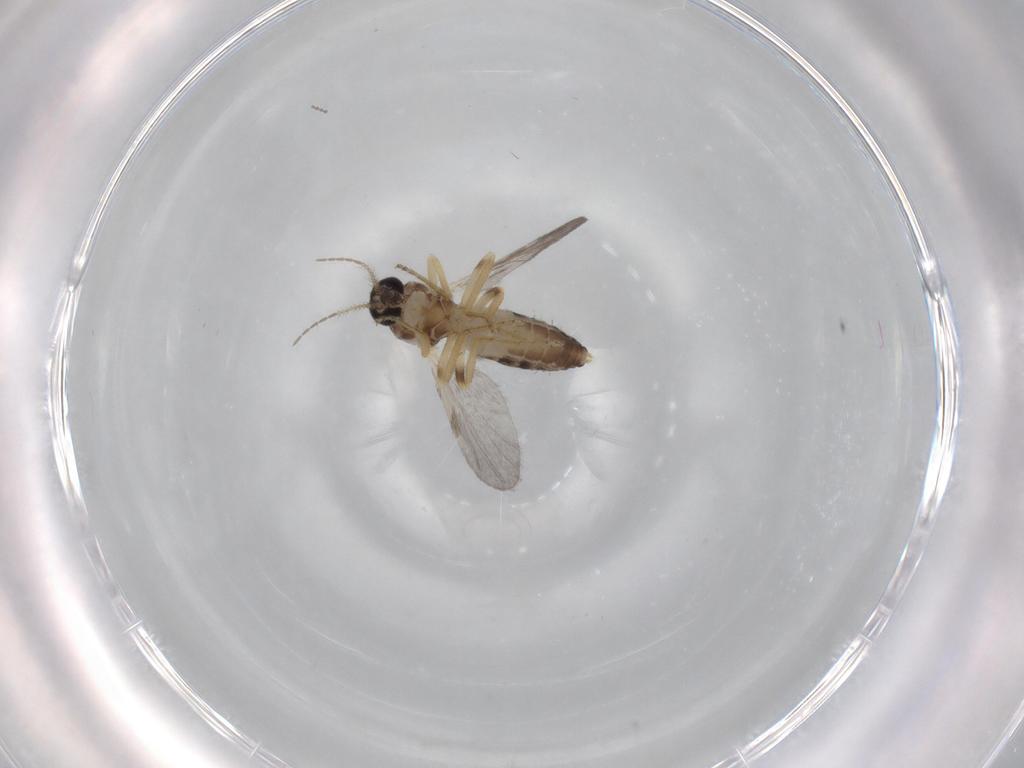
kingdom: Animalia
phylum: Arthropoda
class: Insecta
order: Diptera
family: Ceratopogonidae
